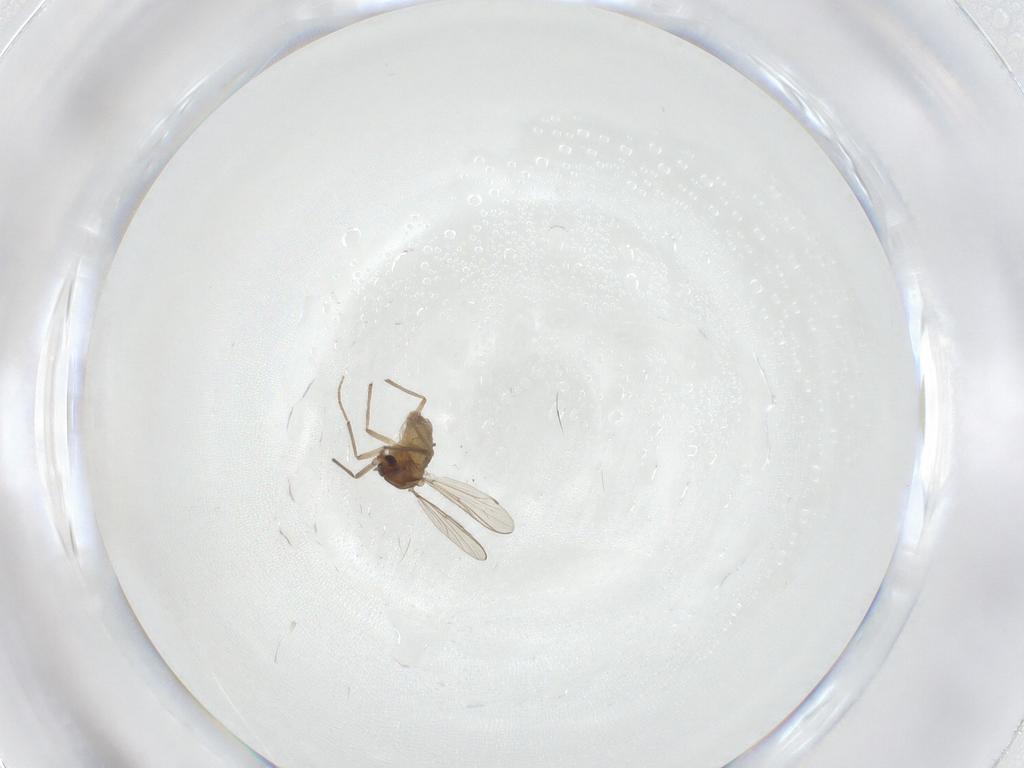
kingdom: Animalia
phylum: Arthropoda
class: Insecta
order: Diptera
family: Chironomidae
